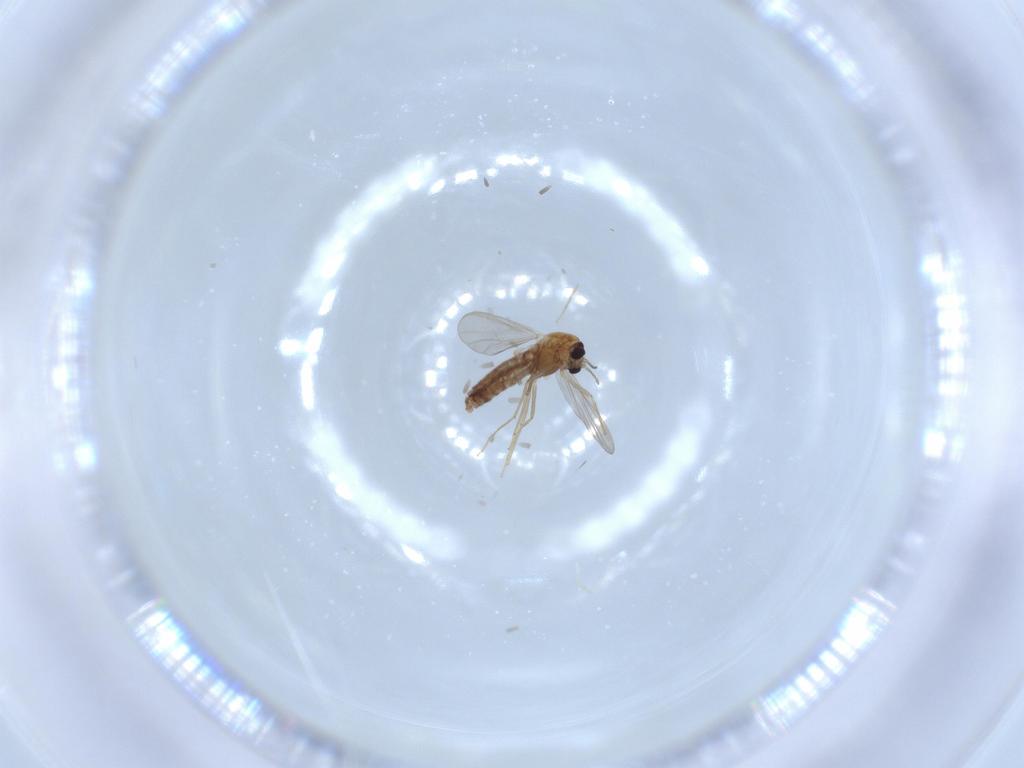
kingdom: Animalia
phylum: Arthropoda
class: Insecta
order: Diptera
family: Chironomidae
